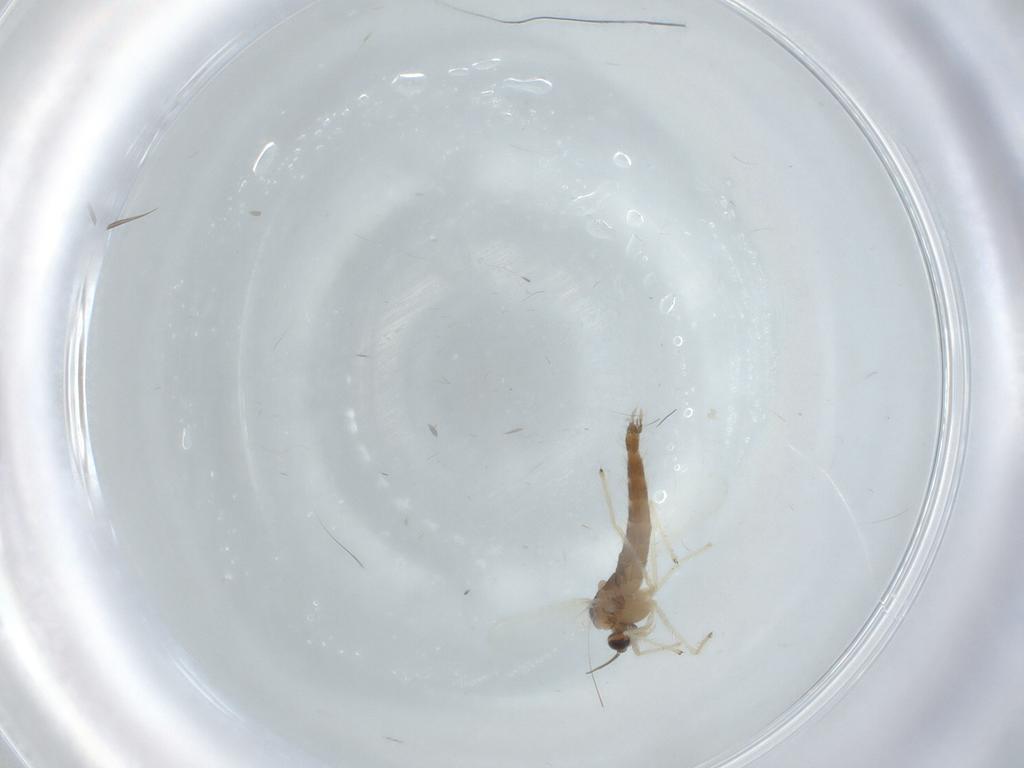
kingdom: Animalia
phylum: Arthropoda
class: Insecta
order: Diptera
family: Chironomidae
